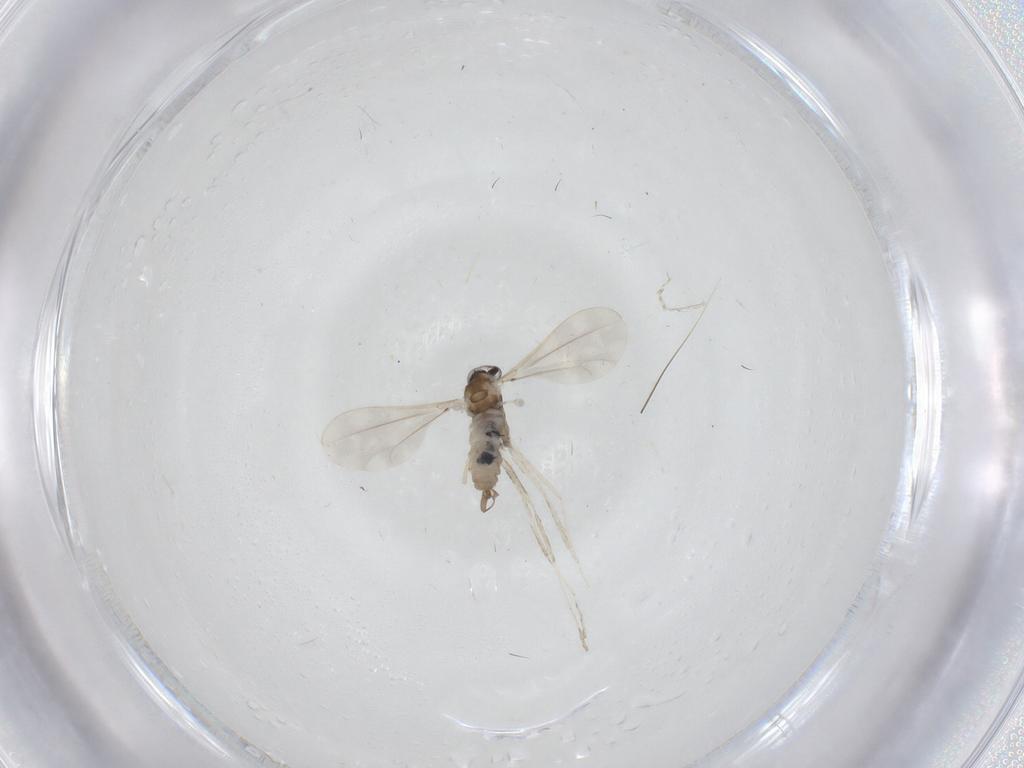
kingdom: Animalia
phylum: Arthropoda
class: Insecta
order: Diptera
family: Cecidomyiidae
